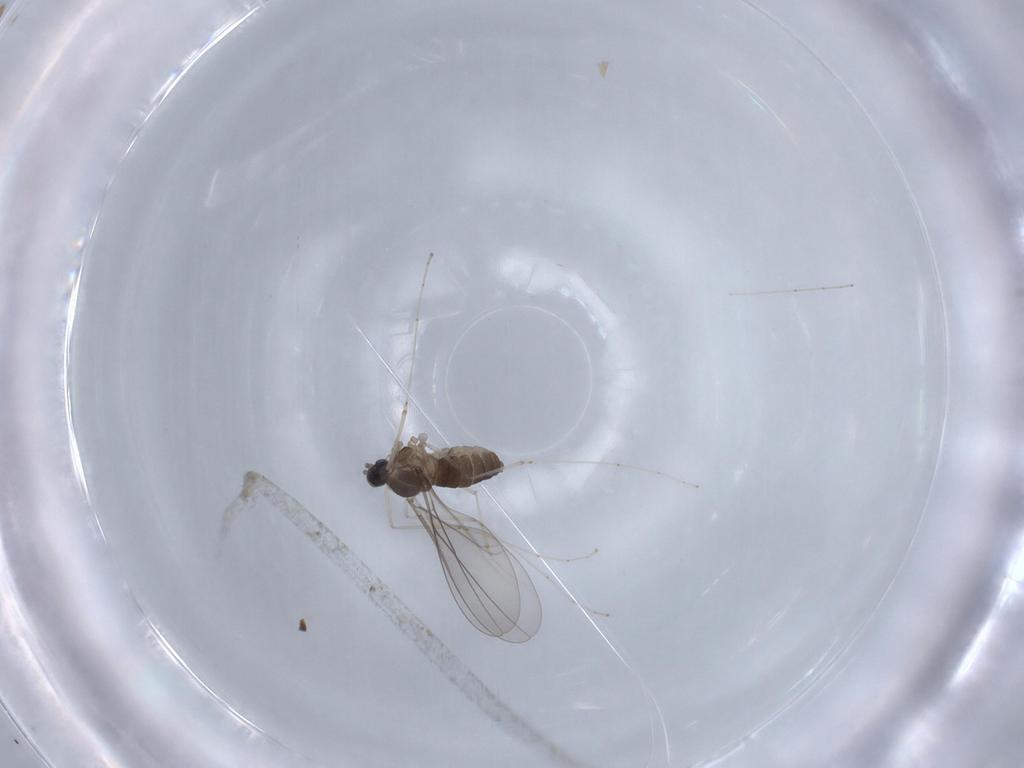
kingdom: Animalia
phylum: Arthropoda
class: Insecta
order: Diptera
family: Cecidomyiidae
